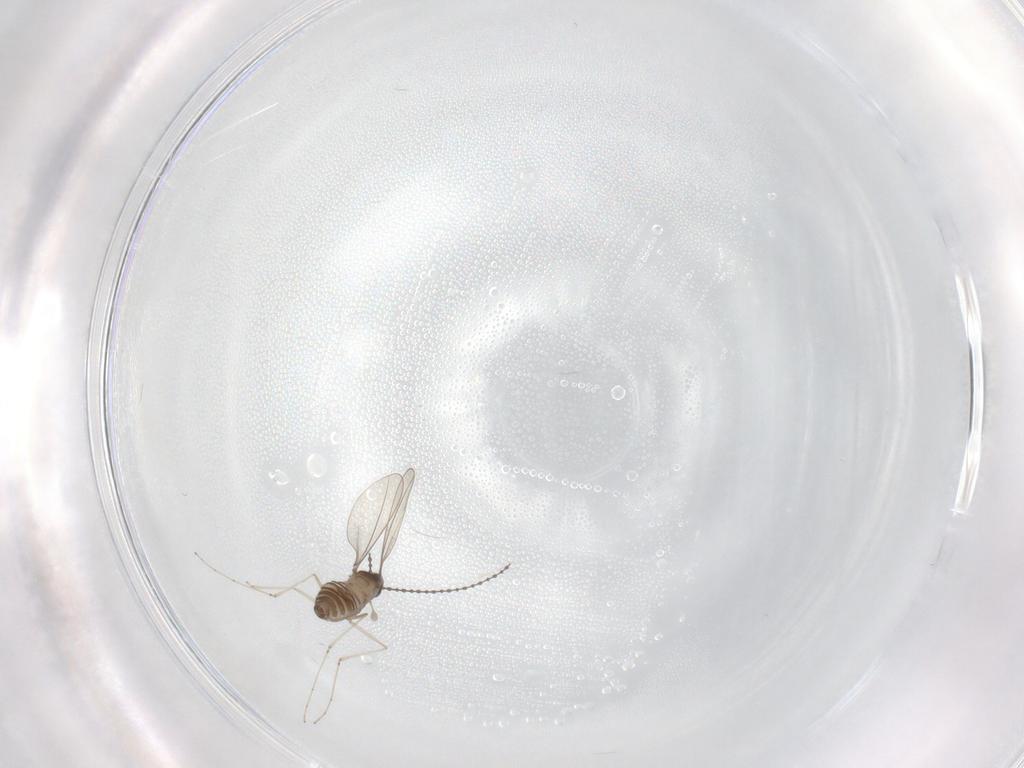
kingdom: Animalia
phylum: Arthropoda
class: Insecta
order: Diptera
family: Cecidomyiidae
